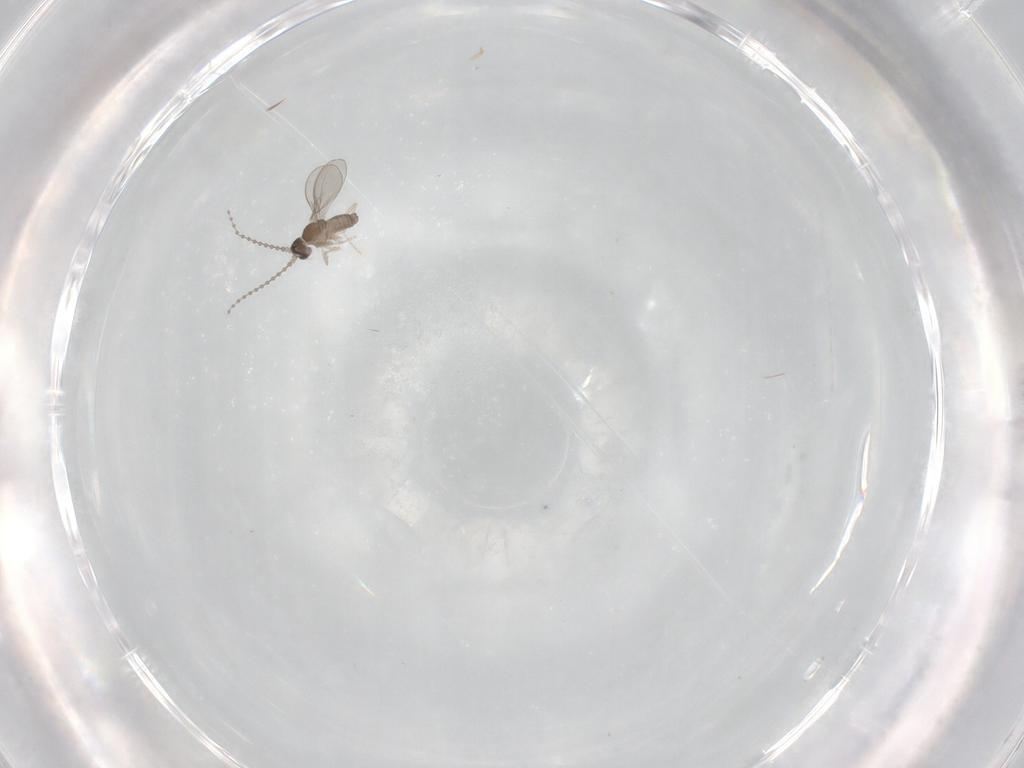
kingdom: Animalia
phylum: Arthropoda
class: Insecta
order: Diptera
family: Cecidomyiidae
